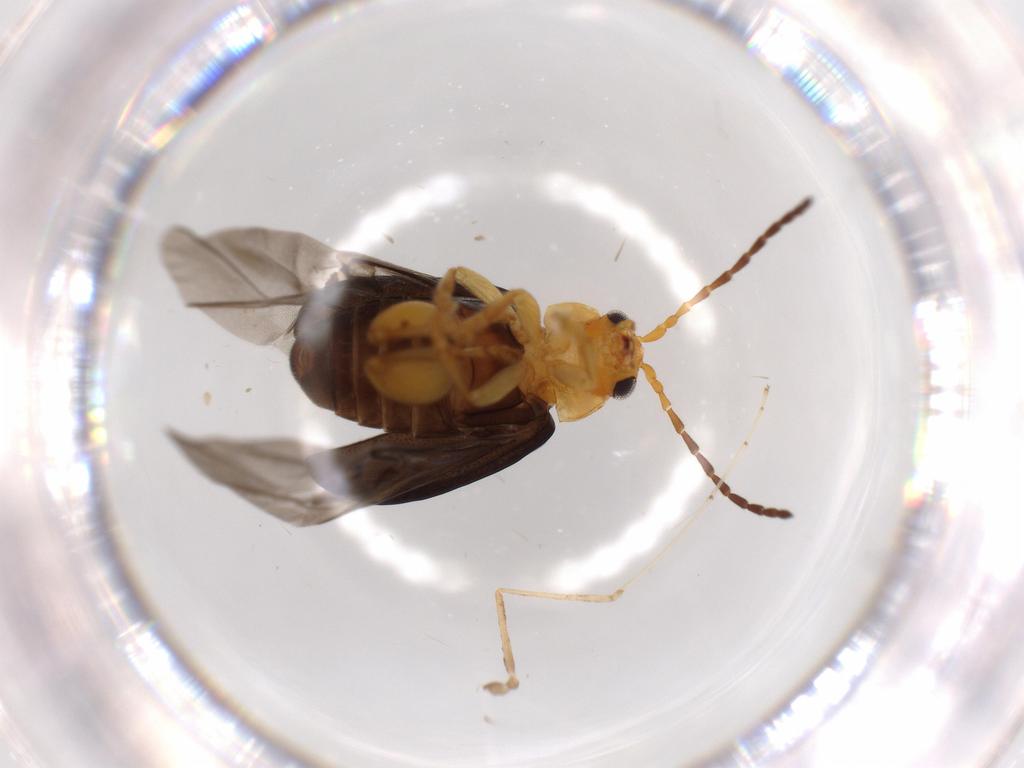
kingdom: Animalia
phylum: Arthropoda
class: Insecta
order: Coleoptera
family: Chrysomelidae
